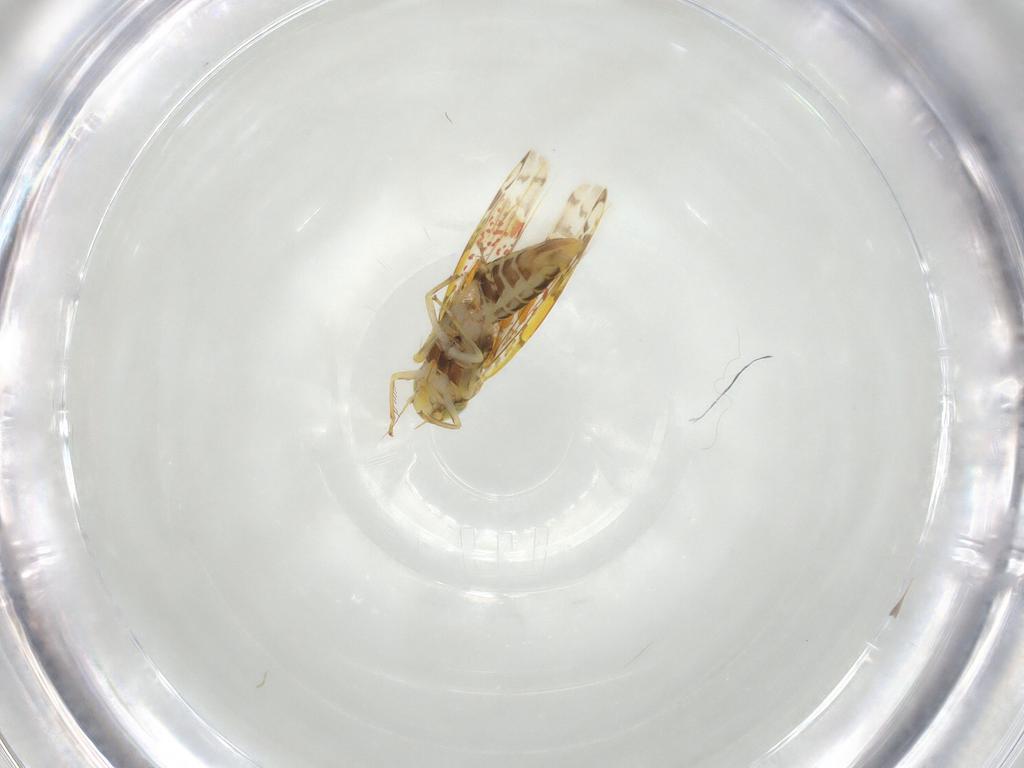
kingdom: Animalia
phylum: Arthropoda
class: Insecta
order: Hemiptera
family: Cicadellidae
